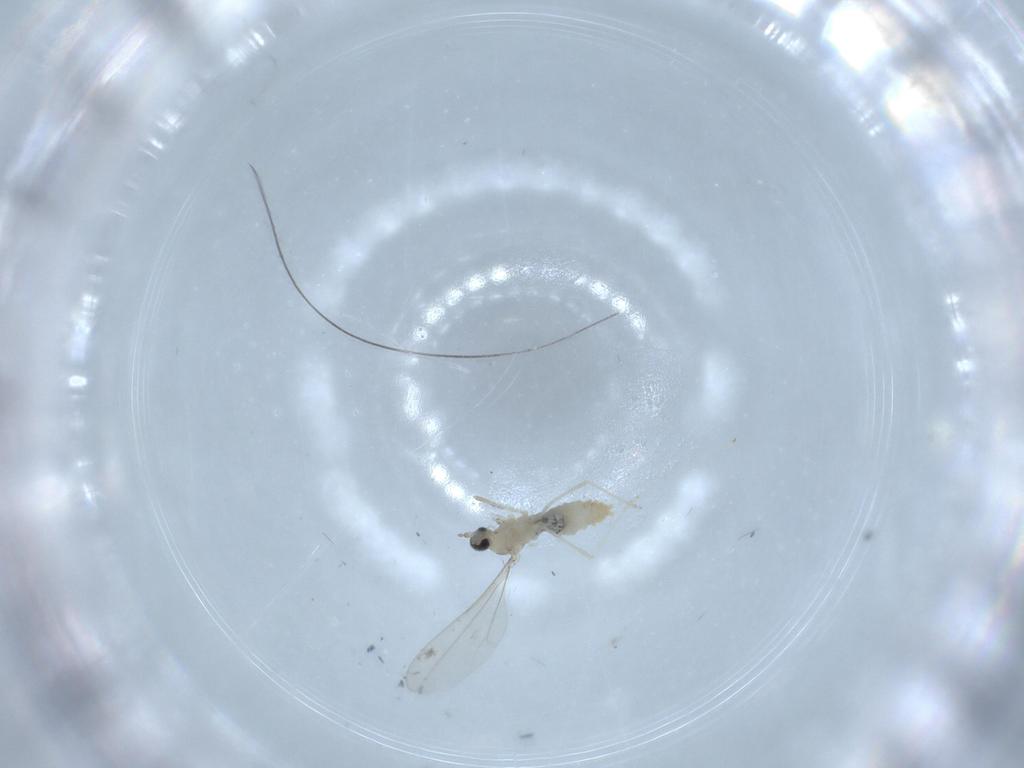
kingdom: Animalia
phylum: Arthropoda
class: Insecta
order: Diptera
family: Cecidomyiidae
